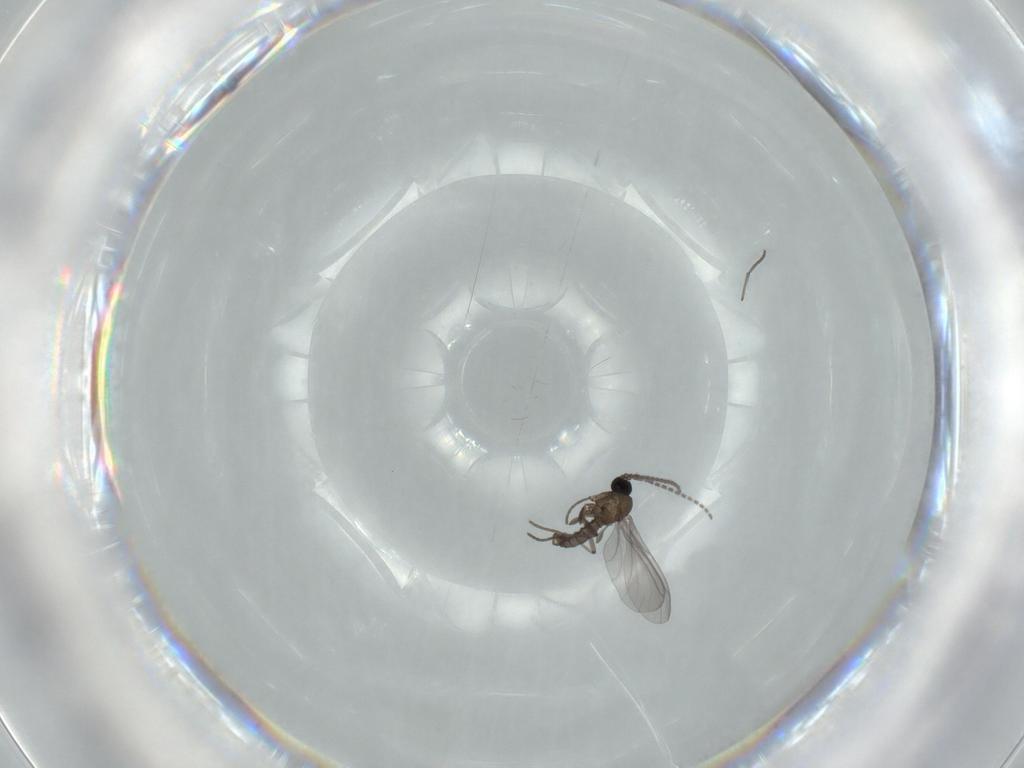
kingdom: Animalia
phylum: Arthropoda
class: Insecta
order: Diptera
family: Sciaridae
